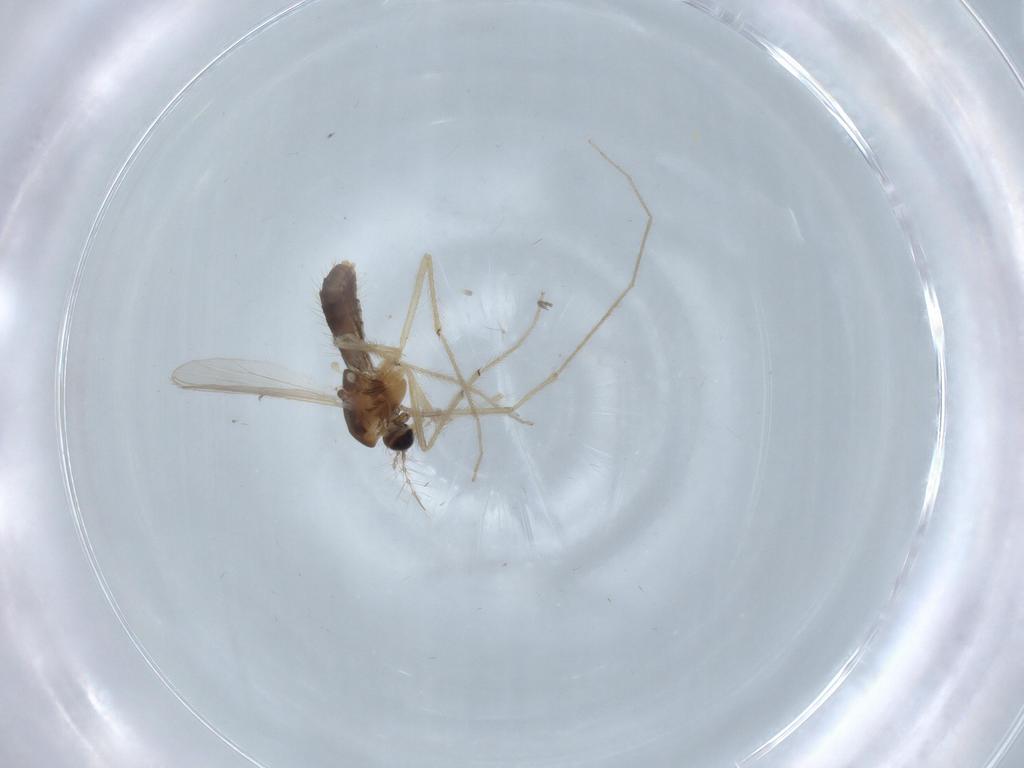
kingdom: Animalia
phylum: Arthropoda
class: Insecta
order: Diptera
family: Chironomidae
